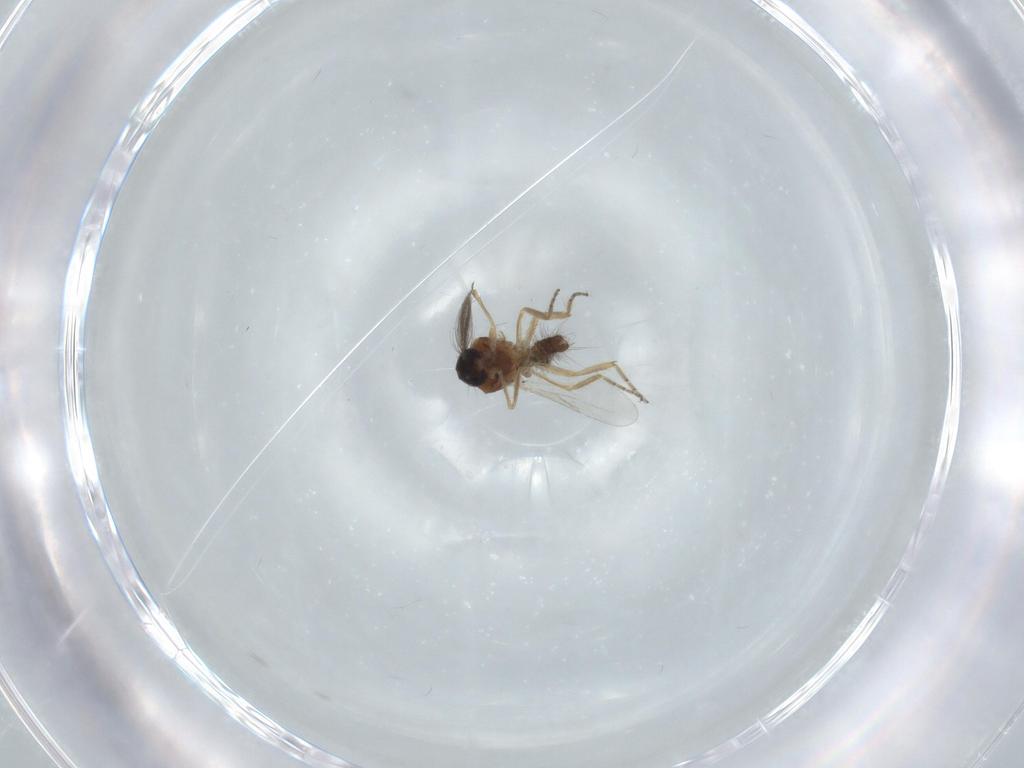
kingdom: Animalia
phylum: Arthropoda
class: Insecta
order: Diptera
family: Ceratopogonidae
